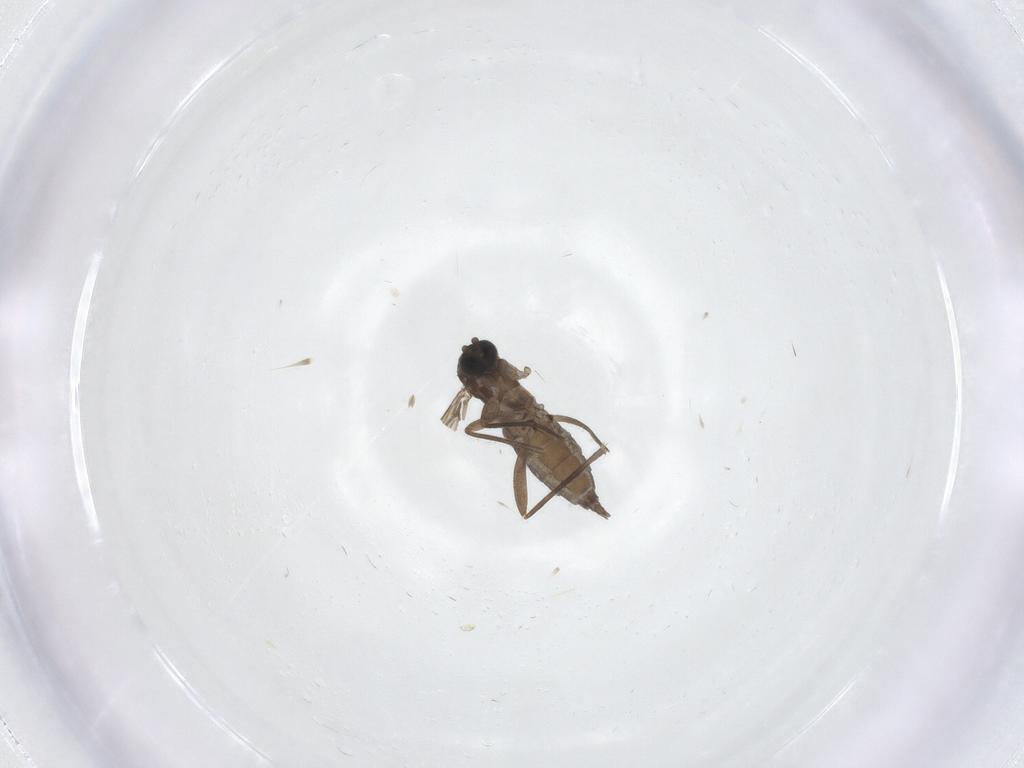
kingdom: Animalia
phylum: Arthropoda
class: Insecta
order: Diptera
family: Sciaridae
